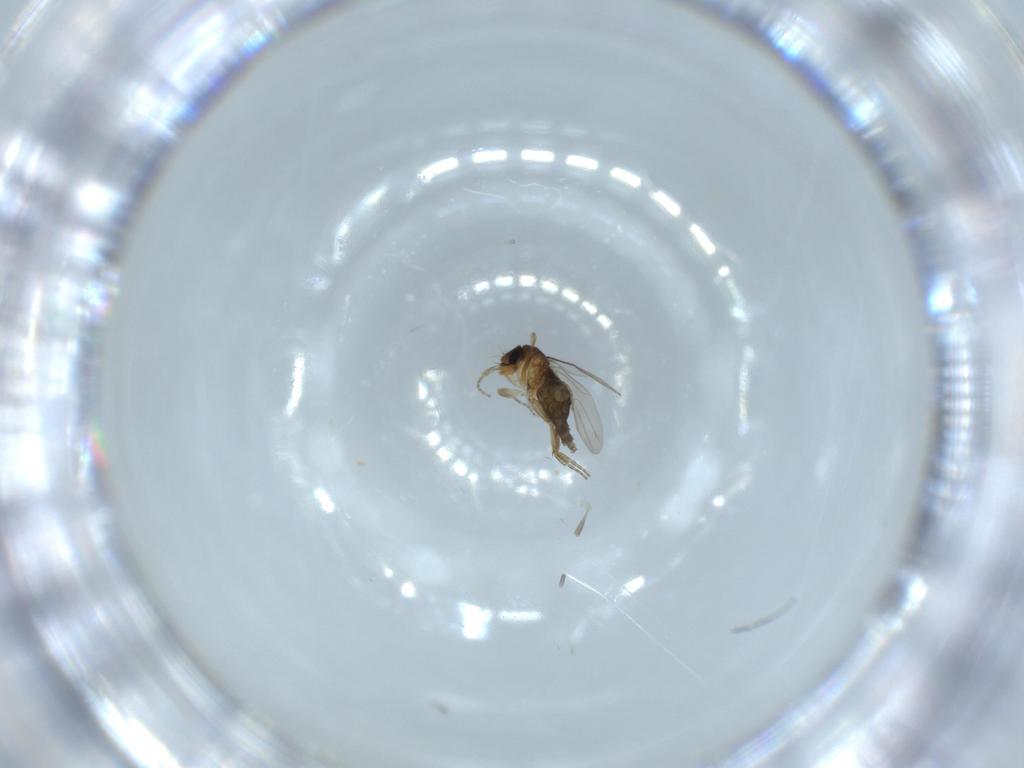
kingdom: Animalia
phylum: Arthropoda
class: Insecta
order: Diptera
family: Phoridae
